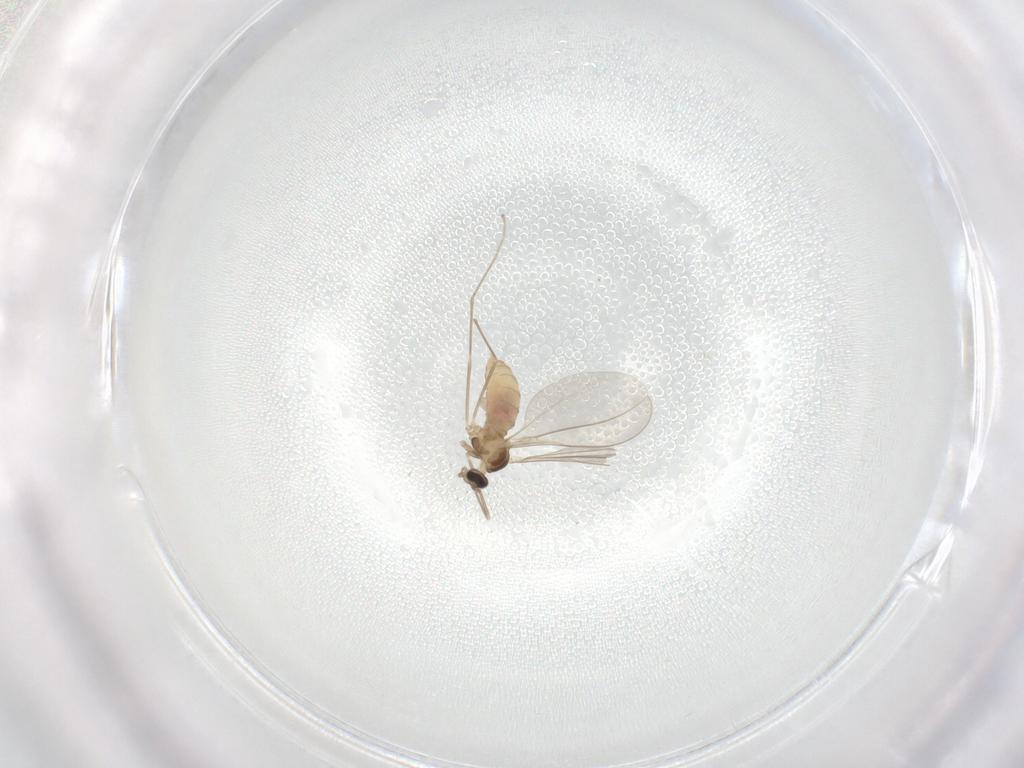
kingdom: Animalia
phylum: Arthropoda
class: Insecta
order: Diptera
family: Cecidomyiidae
